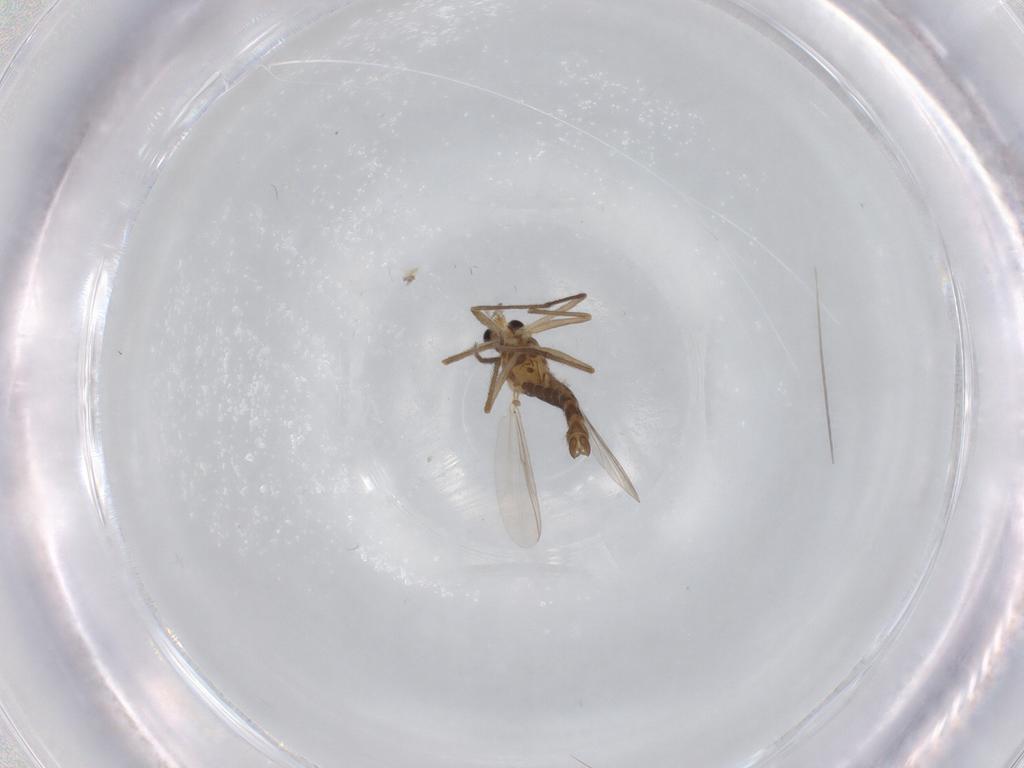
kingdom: Animalia
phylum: Arthropoda
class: Insecta
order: Diptera
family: Chironomidae
